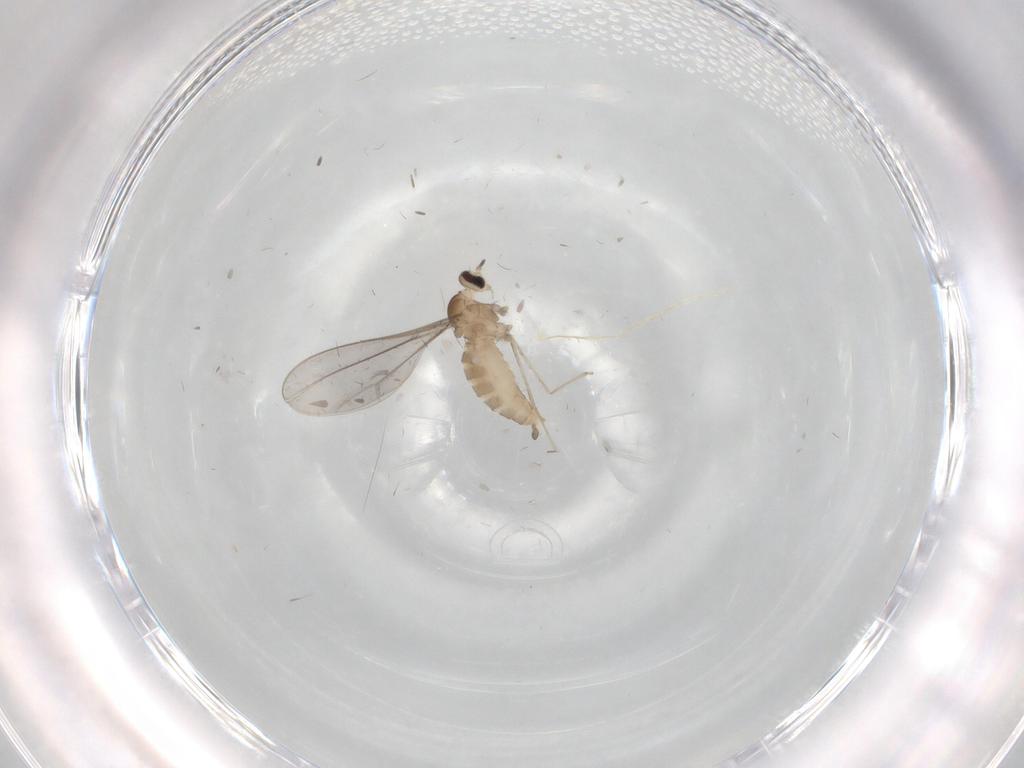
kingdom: Animalia
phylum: Arthropoda
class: Insecta
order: Diptera
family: Cecidomyiidae
